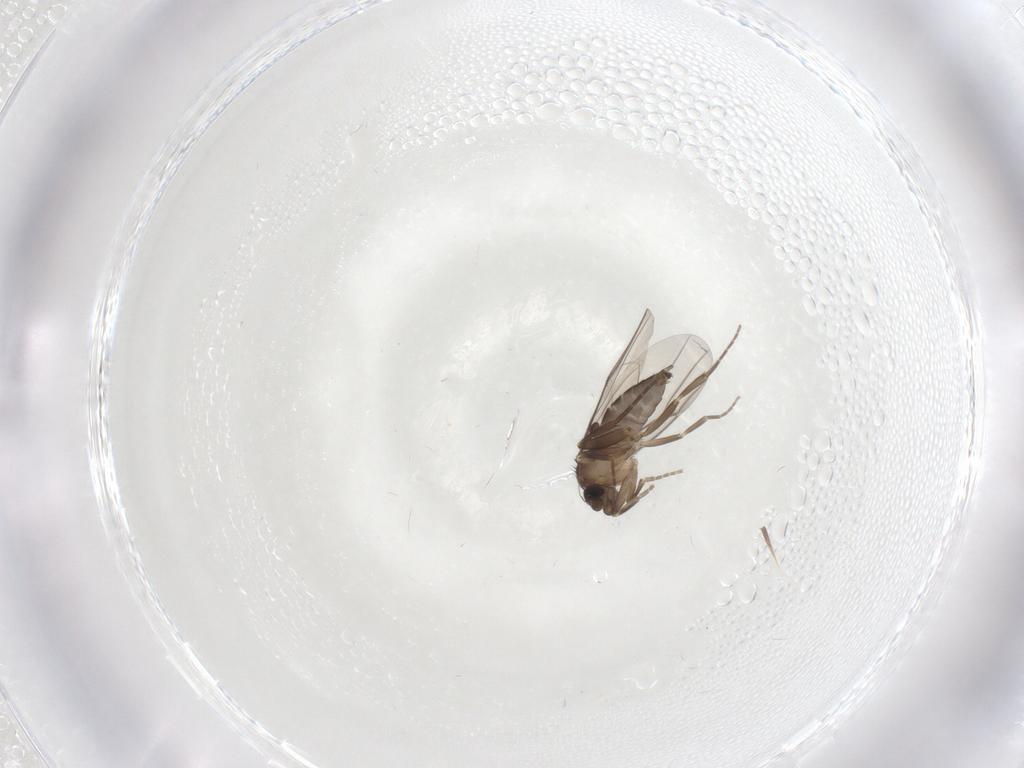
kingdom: Animalia
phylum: Arthropoda
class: Insecta
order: Diptera
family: Phoridae
